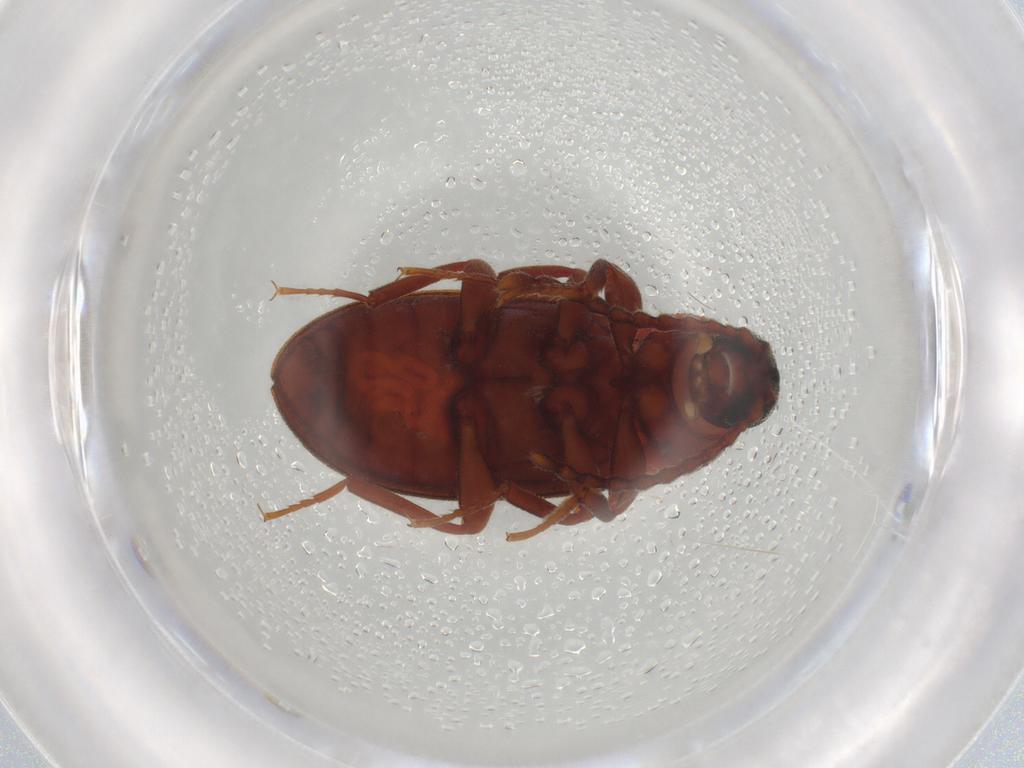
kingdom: Animalia
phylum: Arthropoda
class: Insecta
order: Coleoptera
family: Tenebrionidae
